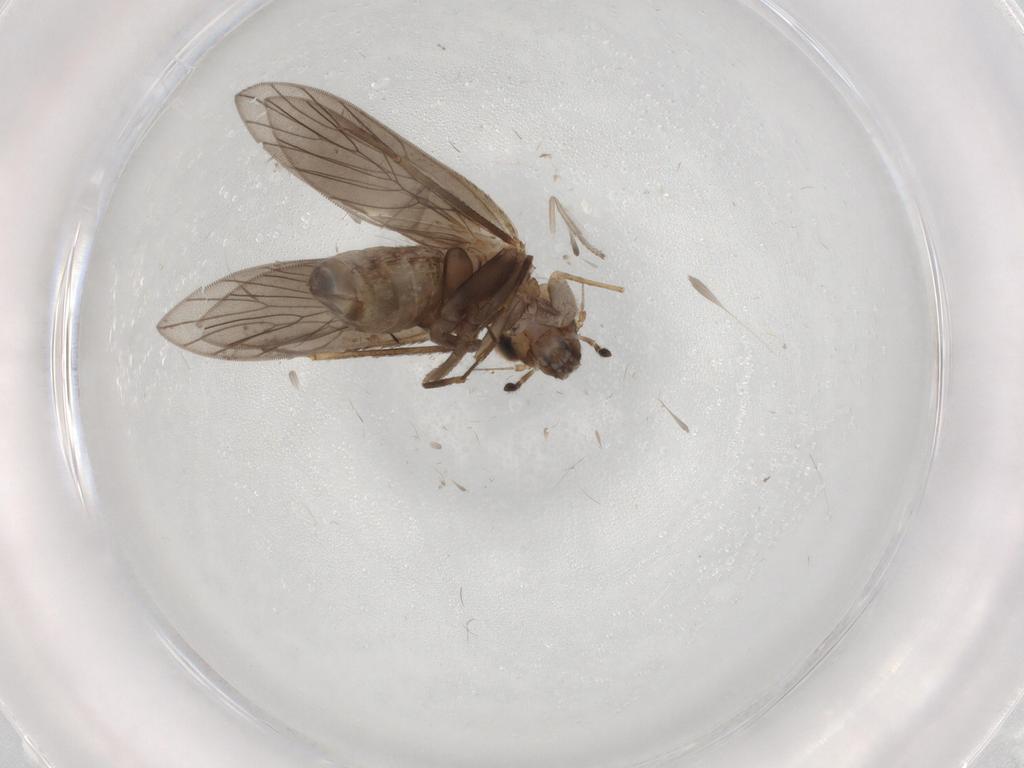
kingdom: Animalia
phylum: Arthropoda
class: Insecta
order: Psocodea
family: Lepidopsocidae
